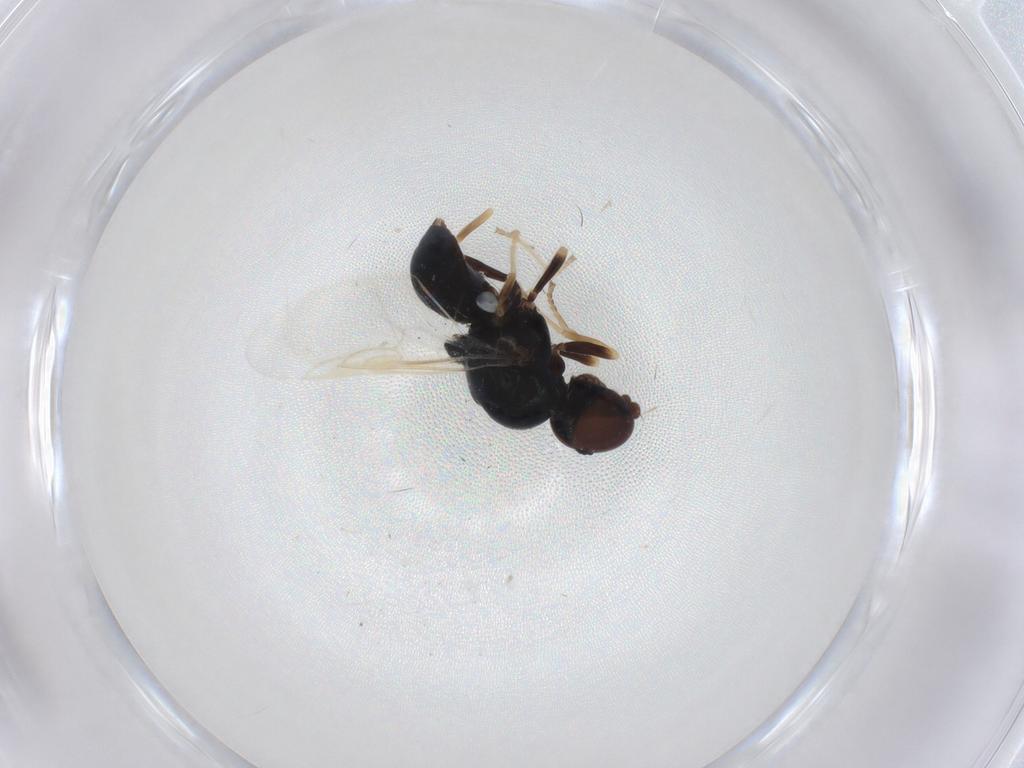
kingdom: Animalia
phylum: Arthropoda
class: Insecta
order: Diptera
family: Stratiomyidae
